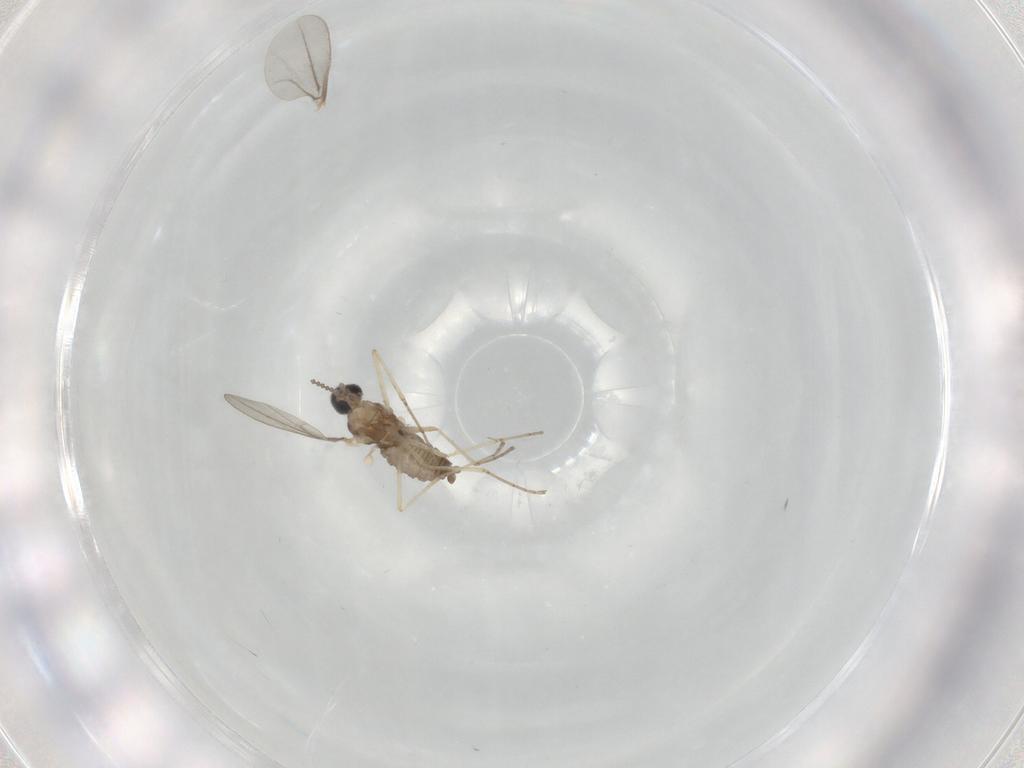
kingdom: Animalia
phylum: Arthropoda
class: Insecta
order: Diptera
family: Cecidomyiidae
